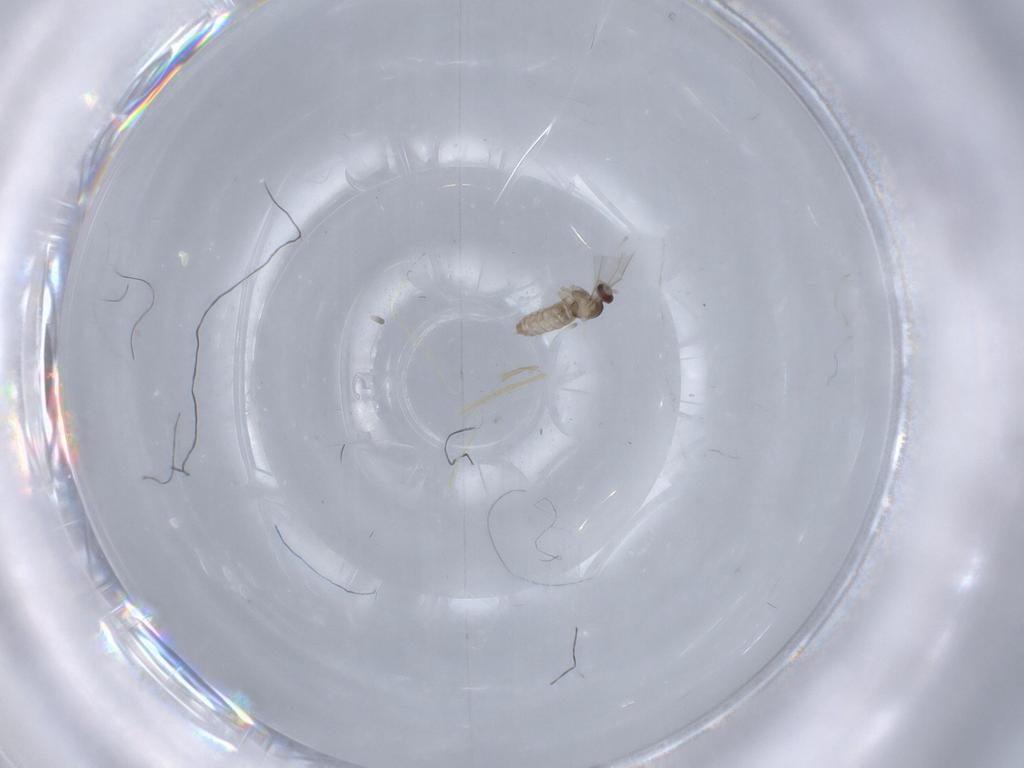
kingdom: Animalia
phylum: Arthropoda
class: Insecta
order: Diptera
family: Cecidomyiidae
